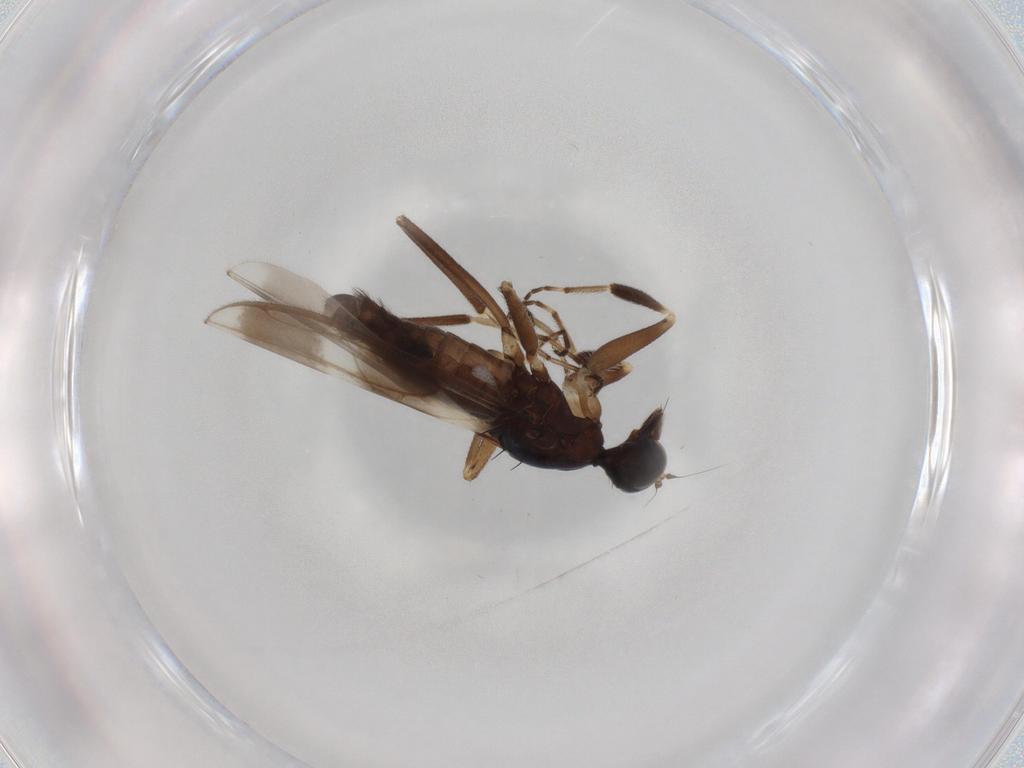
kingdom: Animalia
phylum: Arthropoda
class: Insecta
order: Diptera
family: Hybotidae
